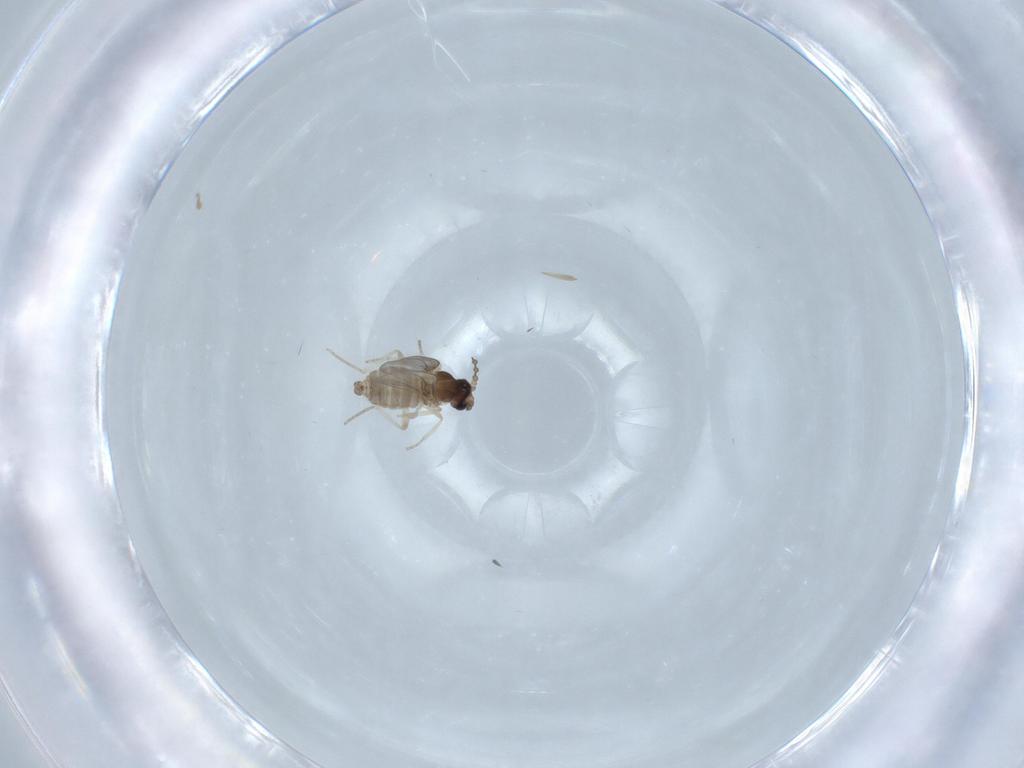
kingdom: Animalia
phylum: Arthropoda
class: Insecta
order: Diptera
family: Cecidomyiidae
